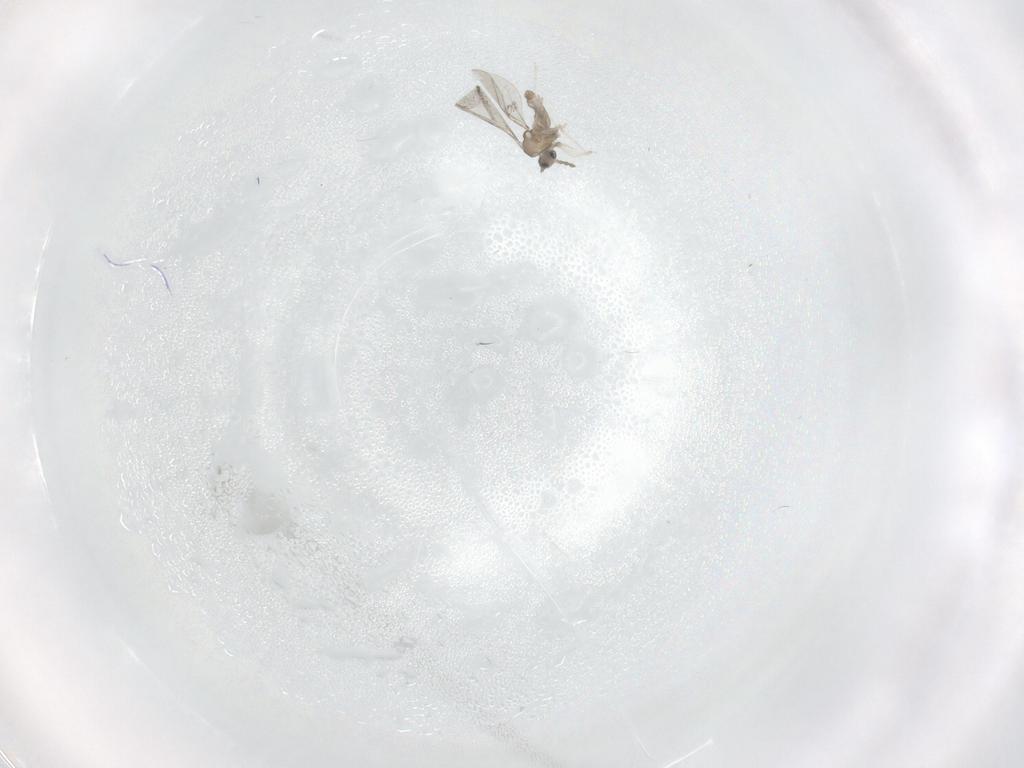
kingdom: Animalia
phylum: Arthropoda
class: Insecta
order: Diptera
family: Cecidomyiidae
